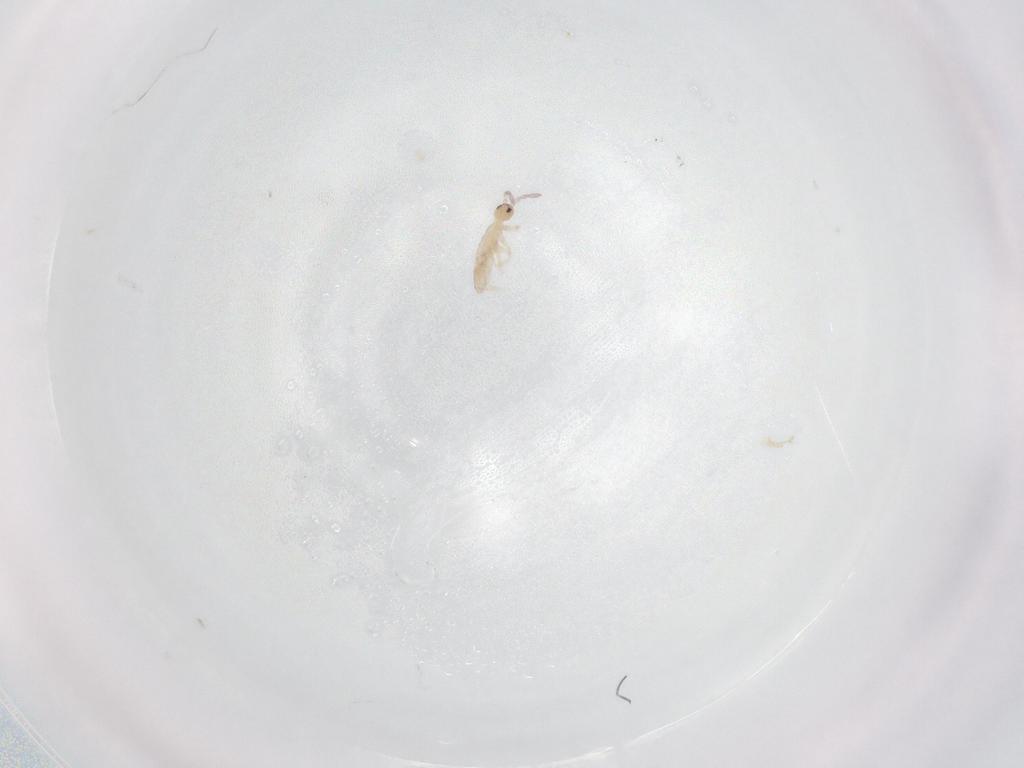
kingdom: Animalia
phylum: Arthropoda
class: Collembola
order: Entomobryomorpha
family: Entomobryidae
